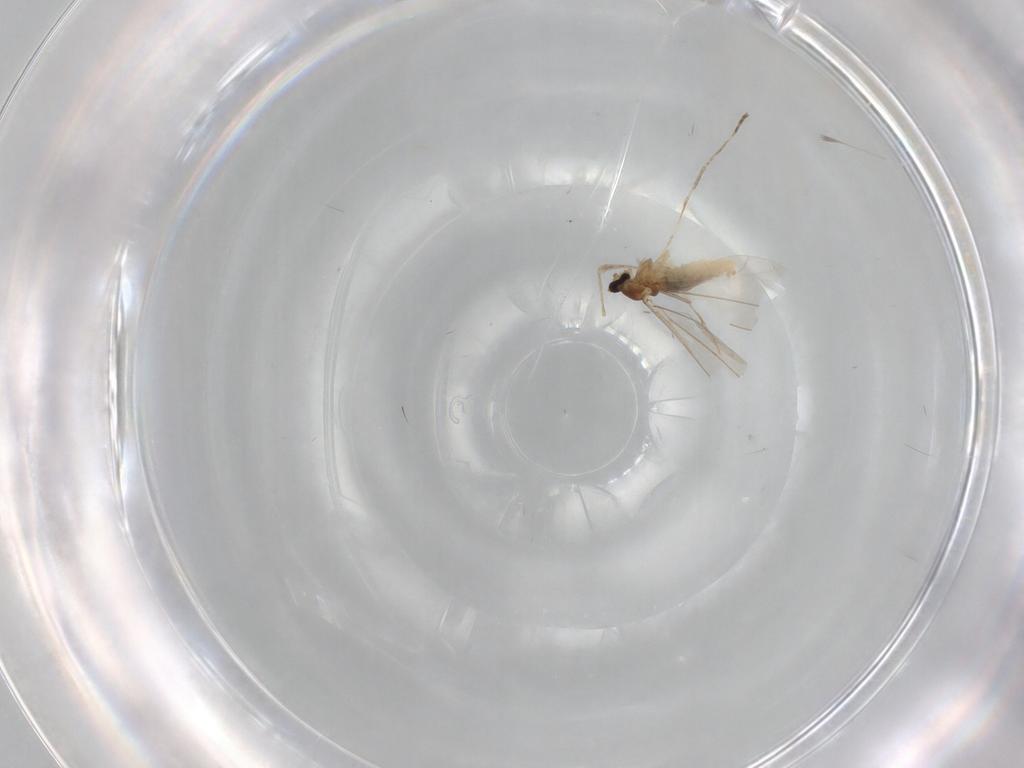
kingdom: Animalia
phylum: Arthropoda
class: Insecta
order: Diptera
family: Cecidomyiidae
